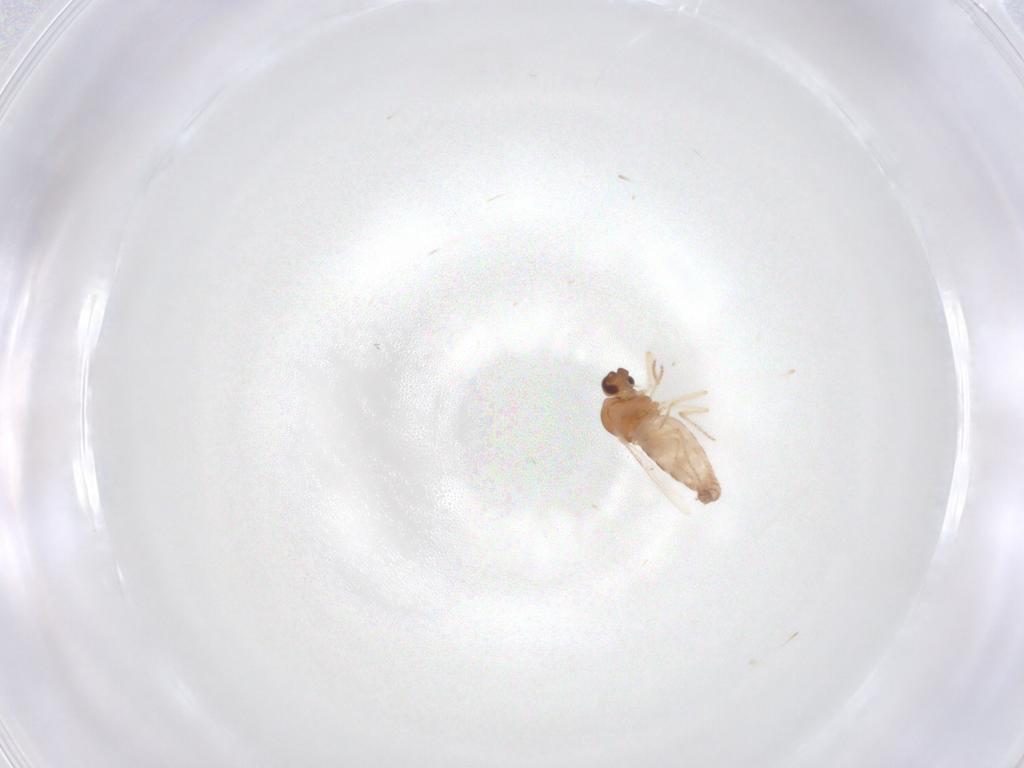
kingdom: Animalia
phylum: Arthropoda
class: Insecta
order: Diptera
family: Ceratopogonidae
